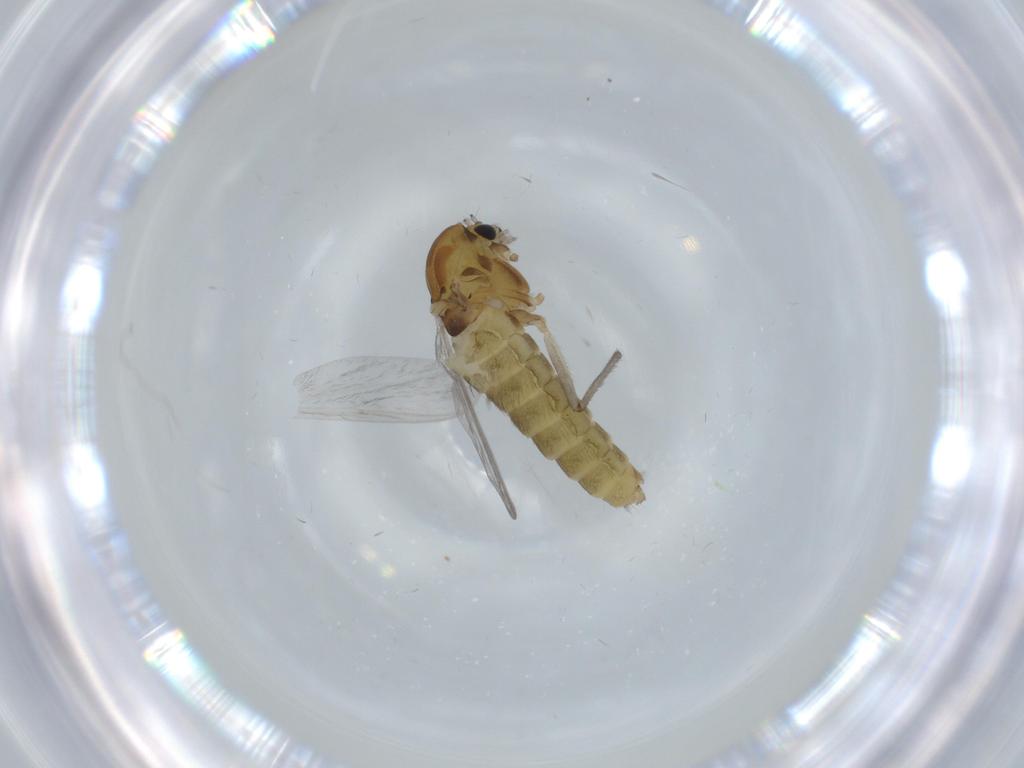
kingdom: Animalia
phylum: Arthropoda
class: Insecta
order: Diptera
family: Chironomidae
